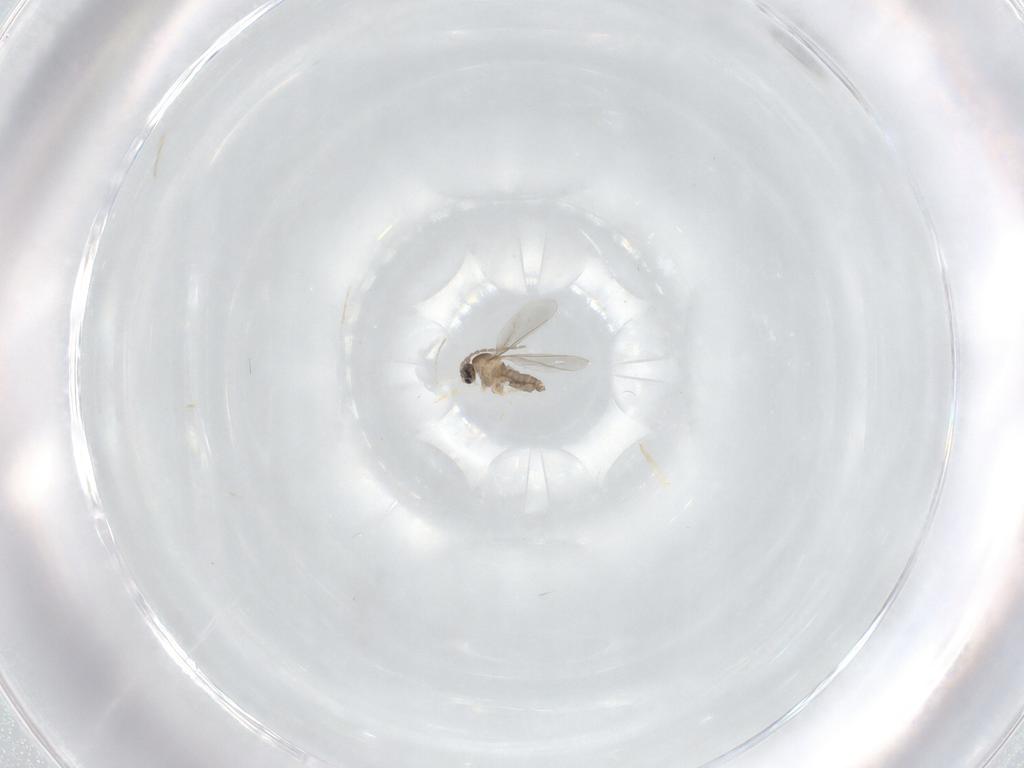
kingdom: Animalia
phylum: Arthropoda
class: Insecta
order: Diptera
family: Cecidomyiidae
